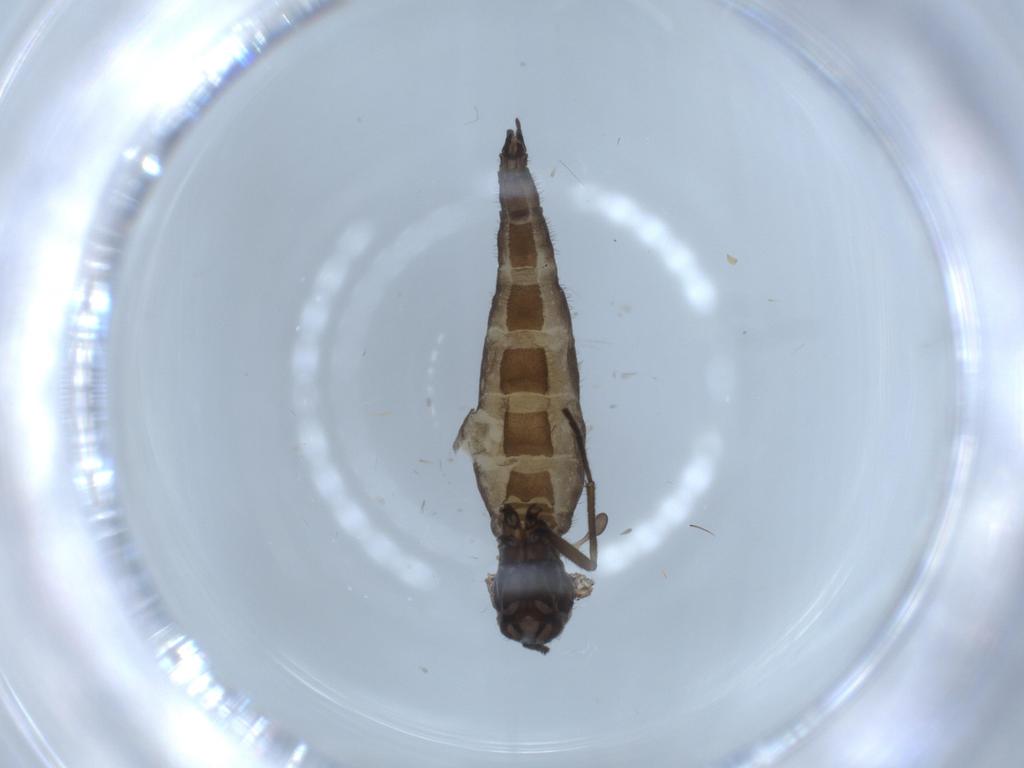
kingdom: Animalia
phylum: Arthropoda
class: Insecta
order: Diptera
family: Sciaridae
